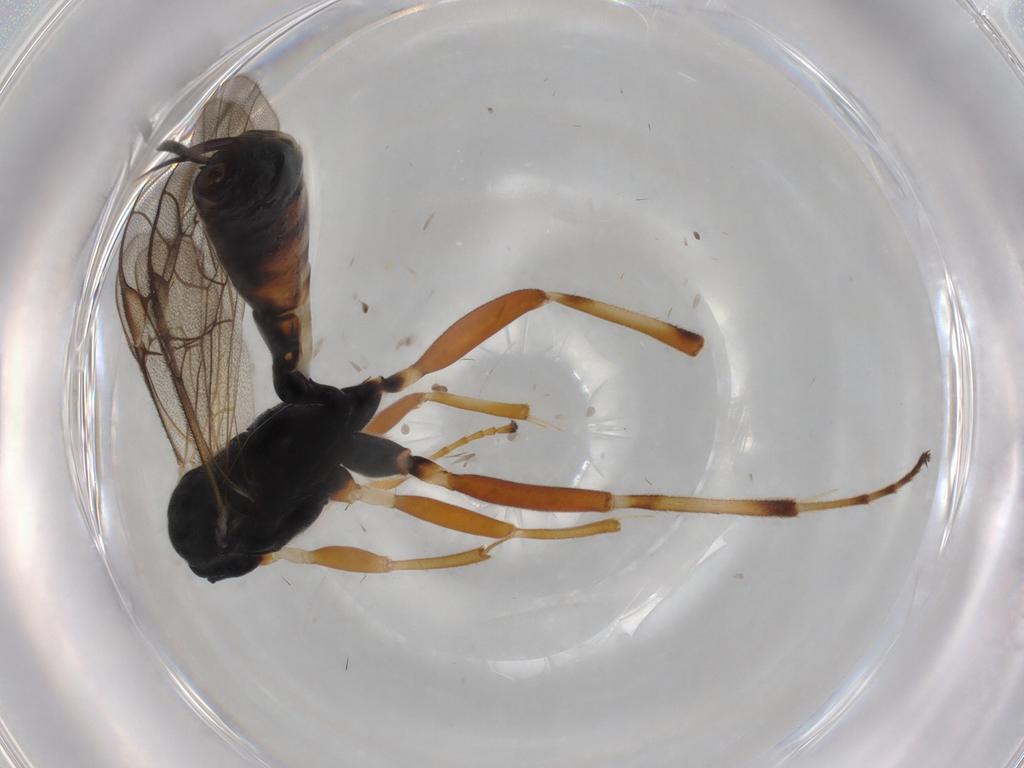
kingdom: Animalia
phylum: Arthropoda
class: Insecta
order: Hymenoptera
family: Ichneumonidae
